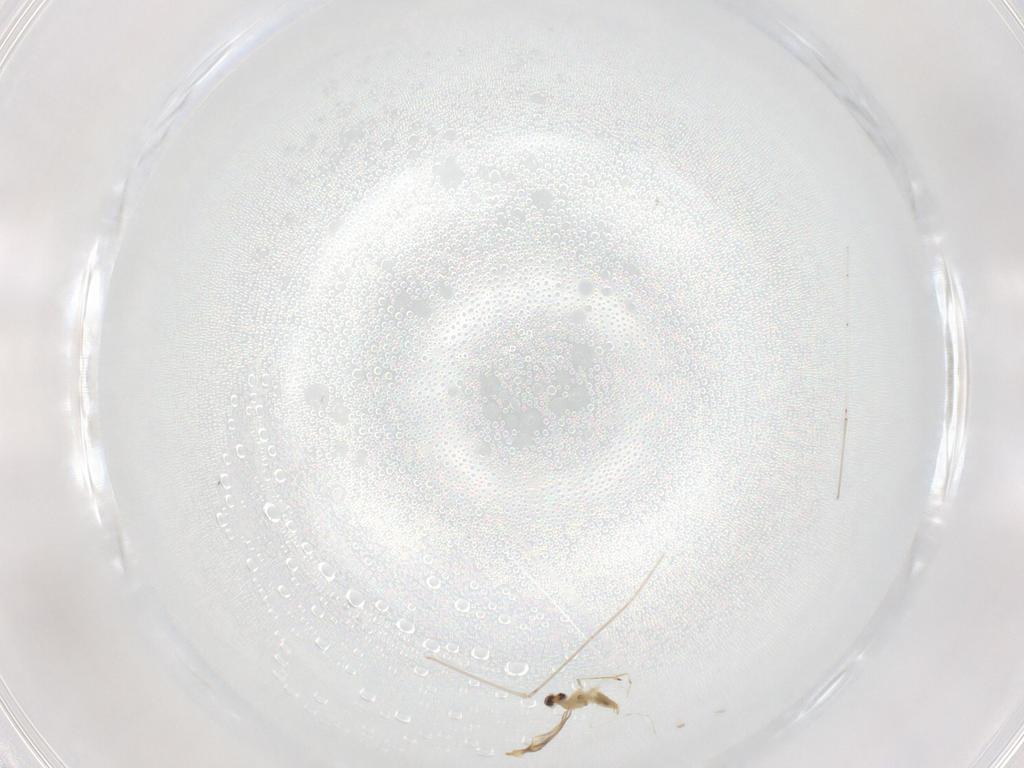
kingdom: Animalia
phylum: Arthropoda
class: Insecta
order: Diptera
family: Cecidomyiidae
